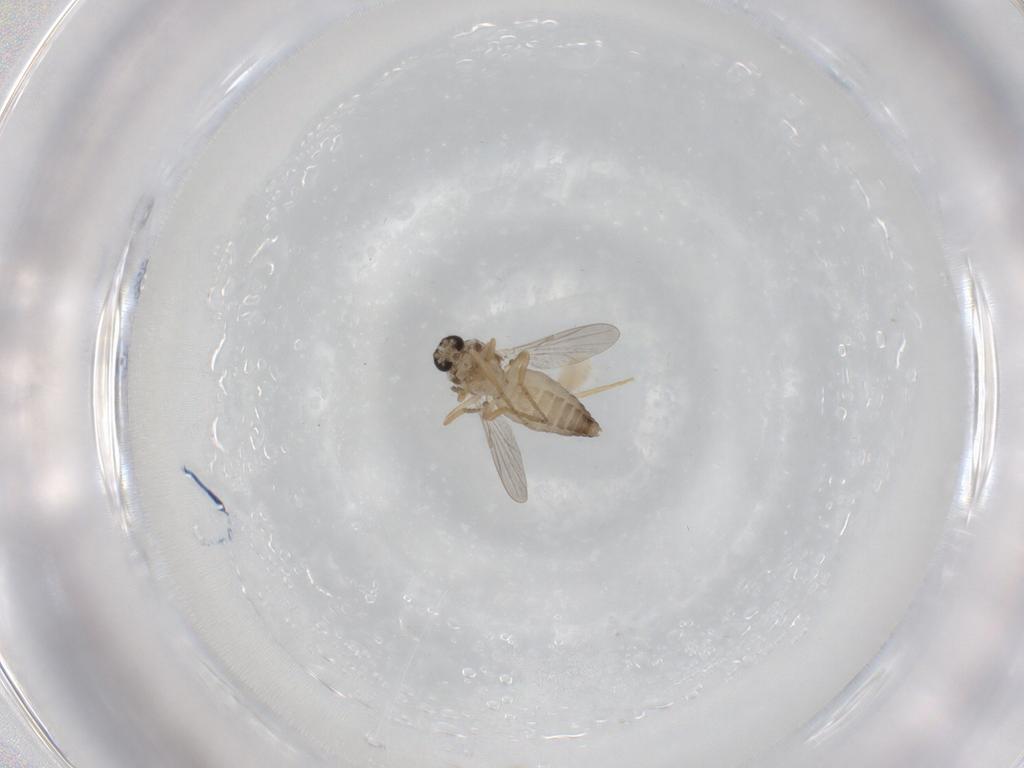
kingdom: Animalia
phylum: Arthropoda
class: Insecta
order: Diptera
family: Ceratopogonidae
